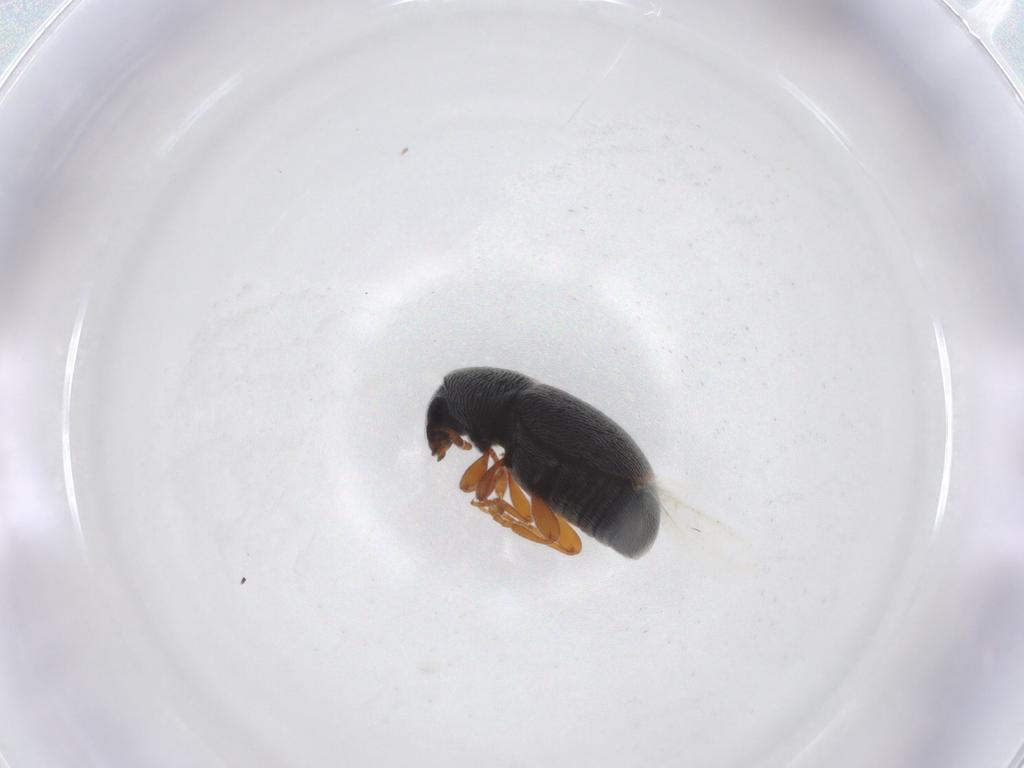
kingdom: Animalia
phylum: Arthropoda
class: Insecta
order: Coleoptera
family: Anthribidae
